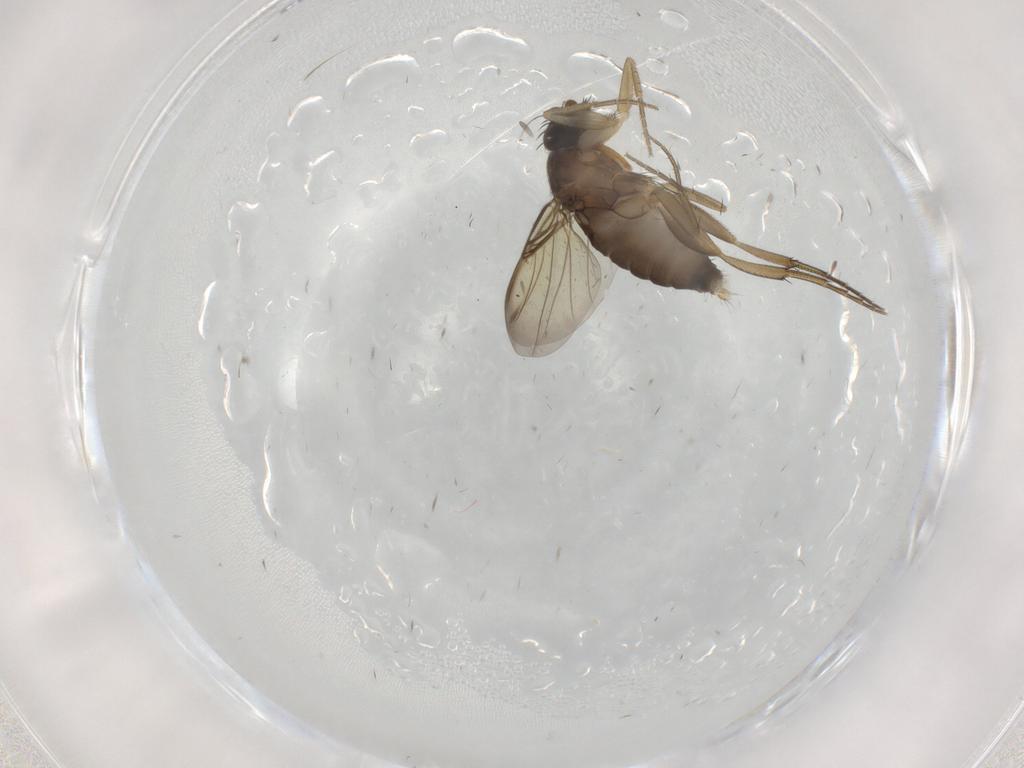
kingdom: Animalia
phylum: Arthropoda
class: Insecta
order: Diptera
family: Phoridae
